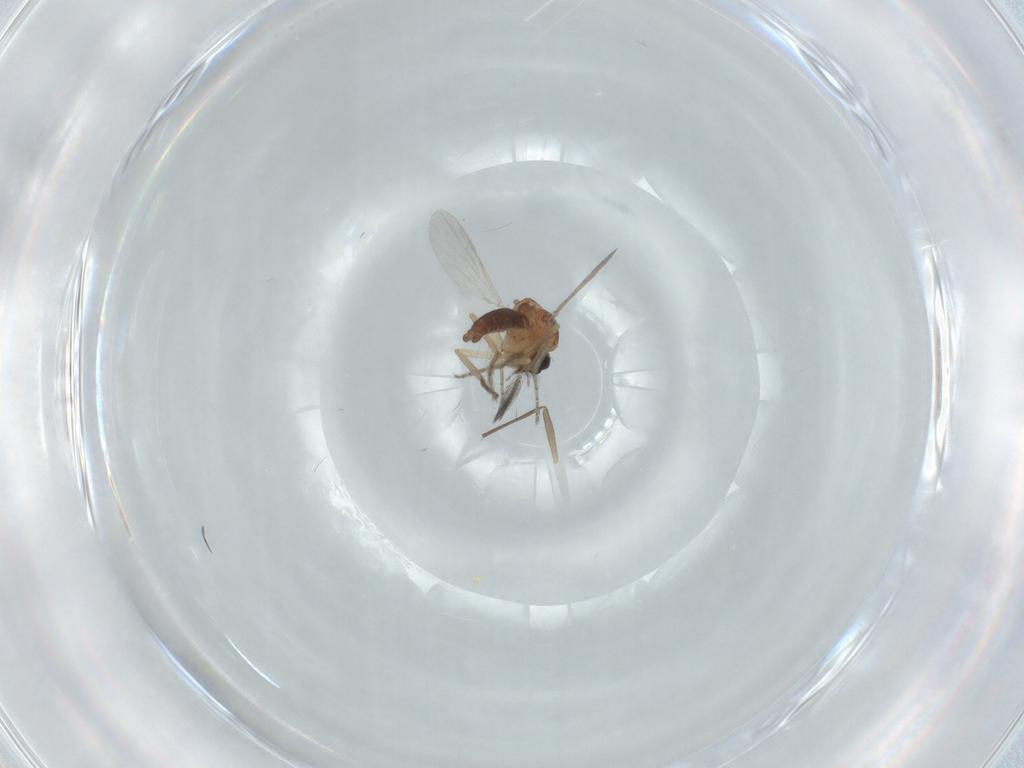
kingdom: Animalia
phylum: Arthropoda
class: Insecta
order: Diptera
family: Ceratopogonidae
